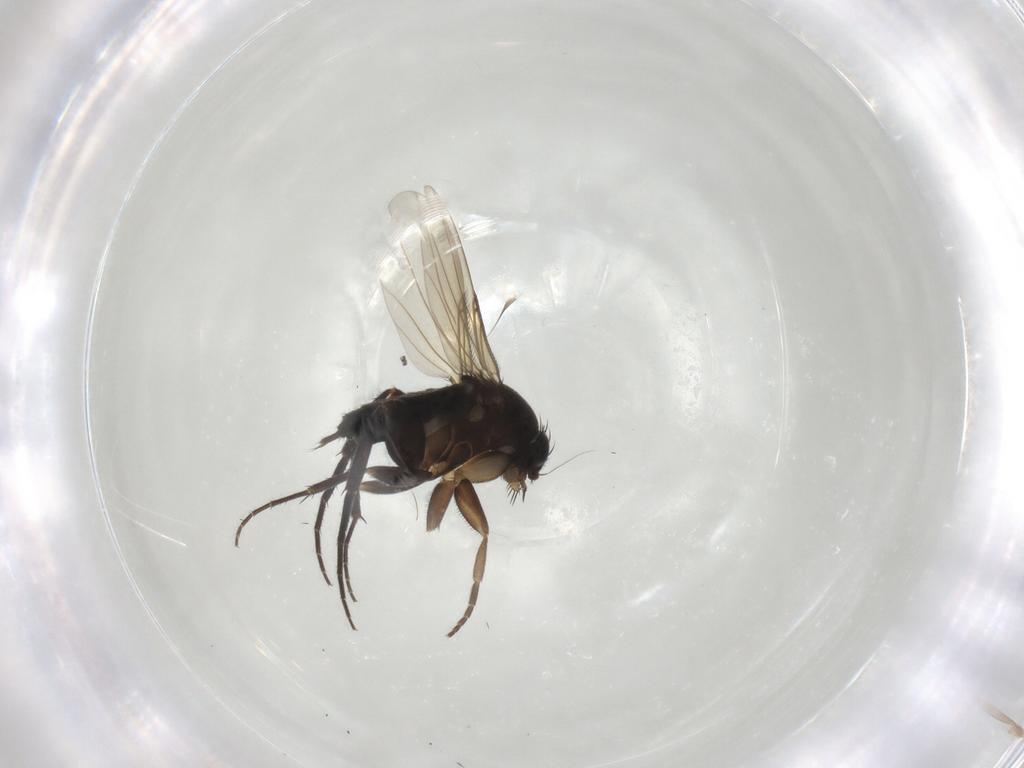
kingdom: Animalia
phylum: Arthropoda
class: Insecta
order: Diptera
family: Phoridae
